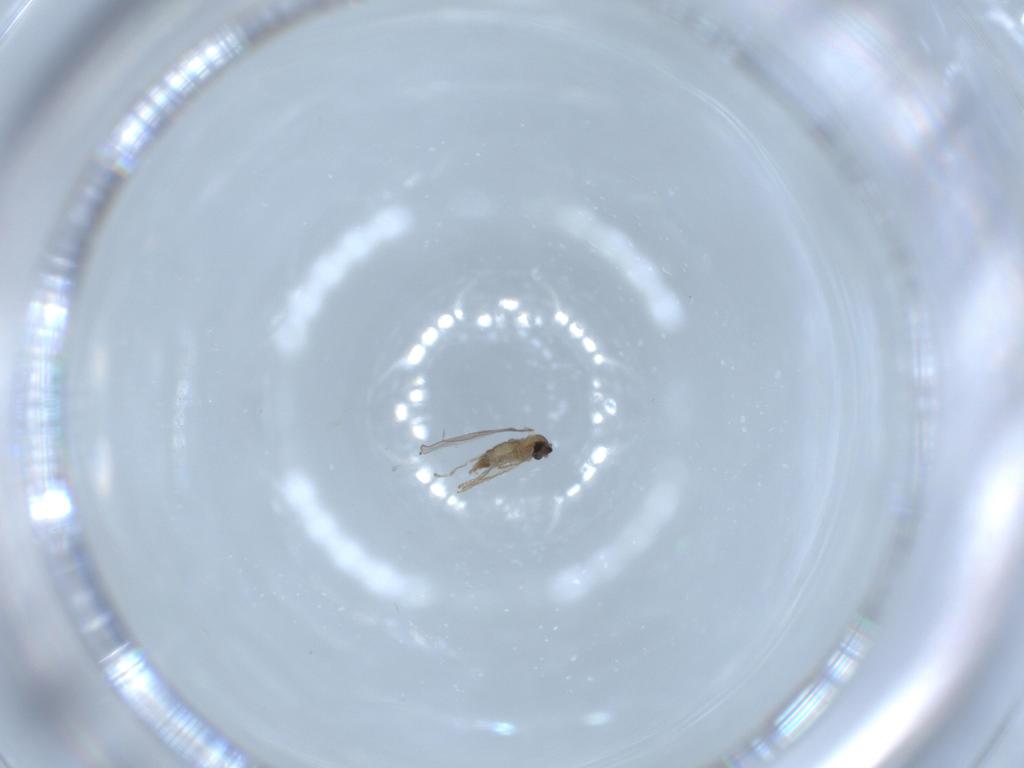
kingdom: Animalia
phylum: Arthropoda
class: Insecta
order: Diptera
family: Cecidomyiidae
